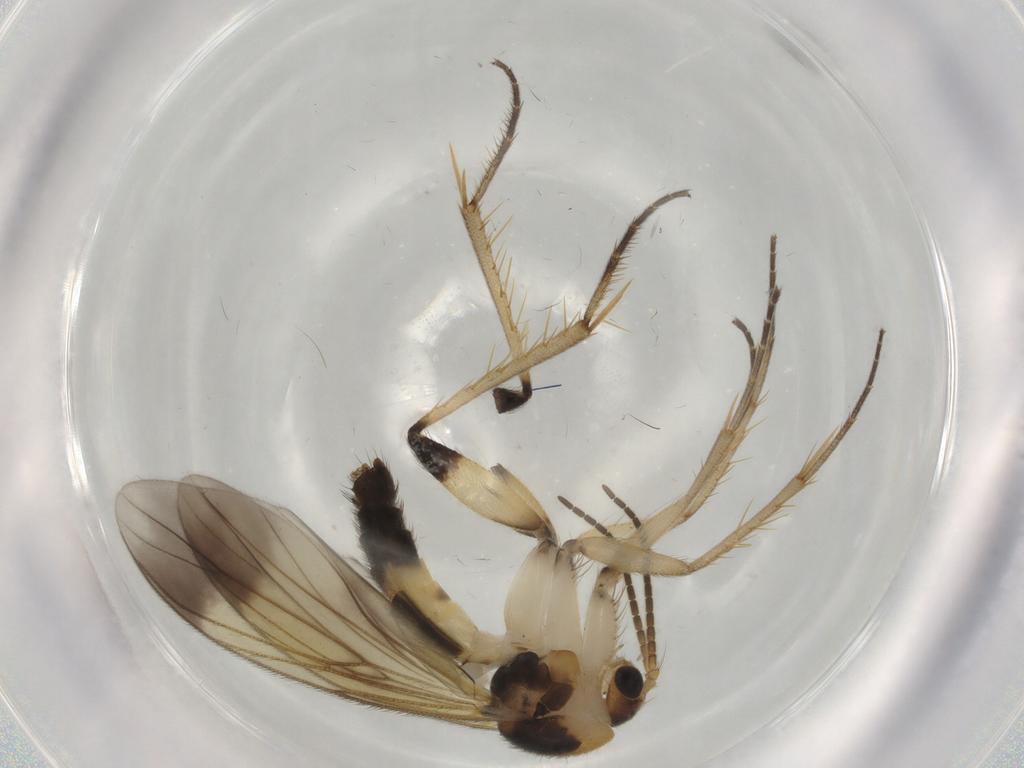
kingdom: Animalia
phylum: Arthropoda
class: Insecta
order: Diptera
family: Mycetophilidae
